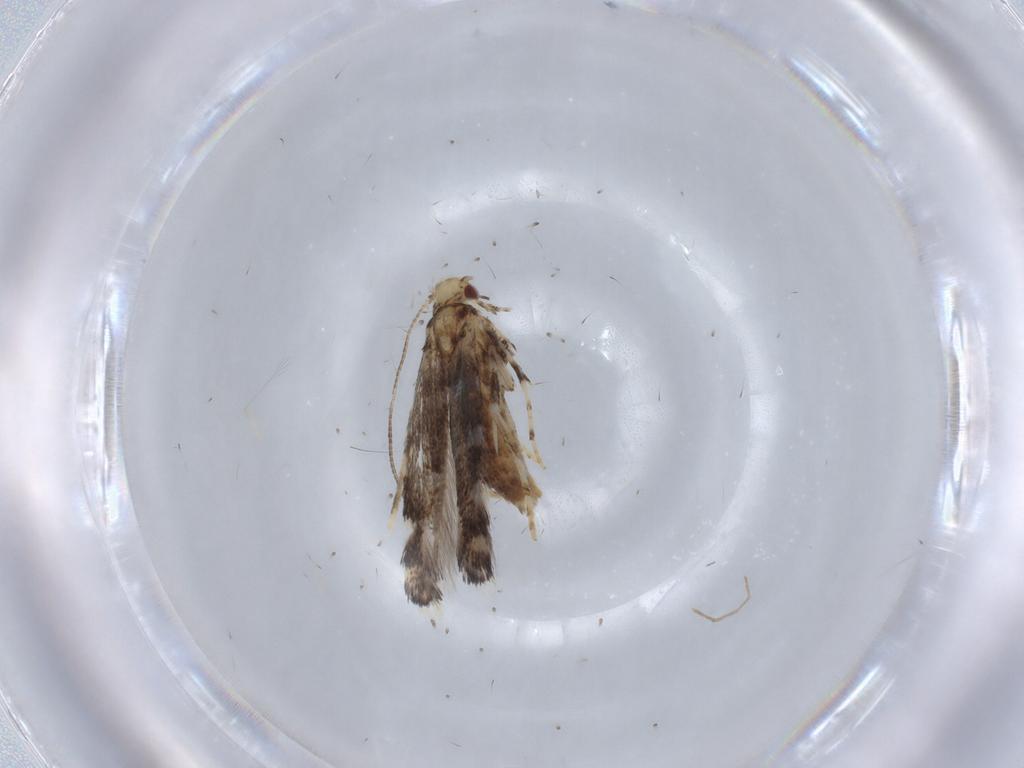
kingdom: Animalia
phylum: Arthropoda
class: Insecta
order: Lepidoptera
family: Gracillariidae
